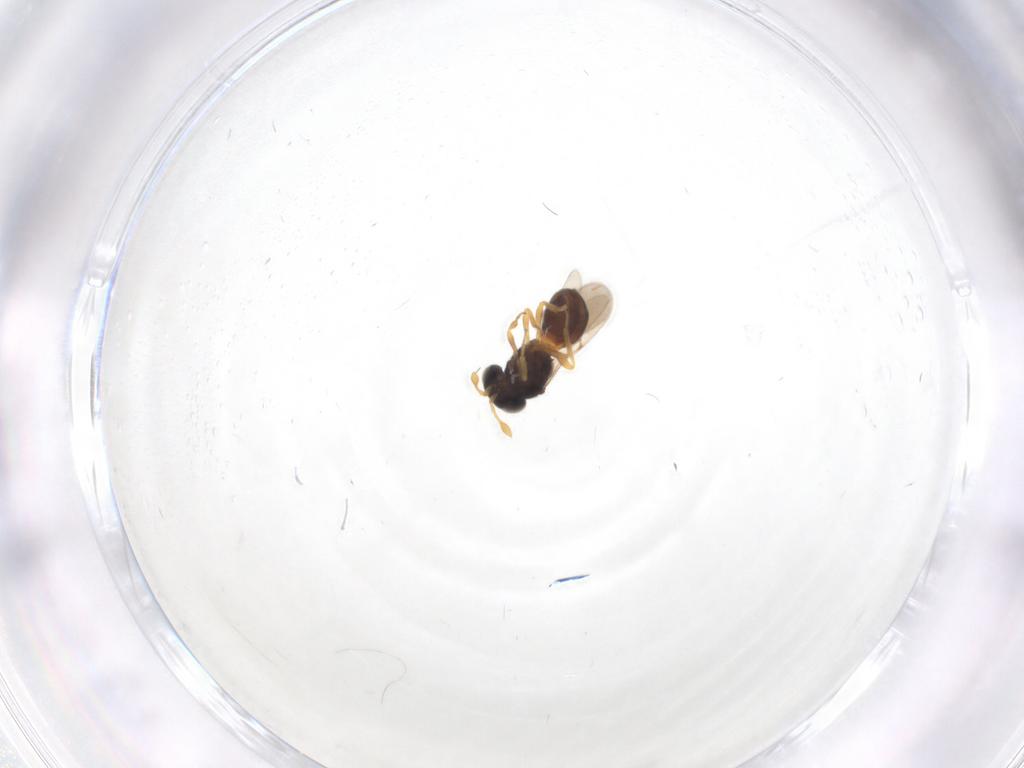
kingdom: Animalia
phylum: Arthropoda
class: Insecta
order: Hymenoptera
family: Scelionidae
